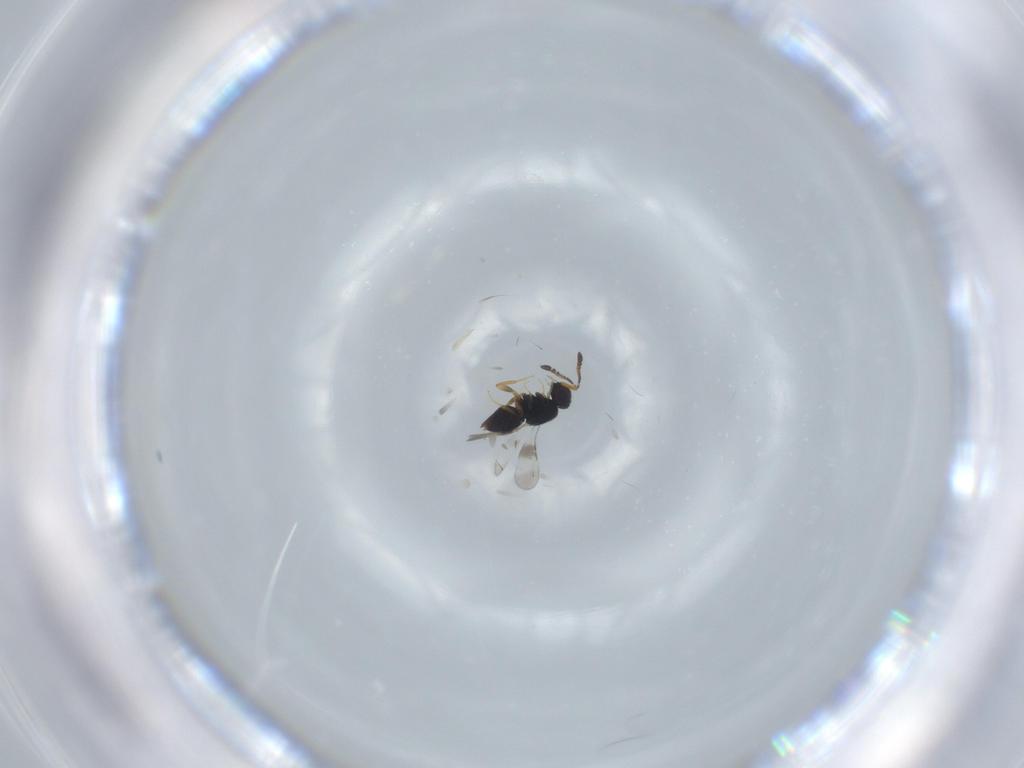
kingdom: Animalia
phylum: Arthropoda
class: Insecta
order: Hymenoptera
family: Ceraphronidae
